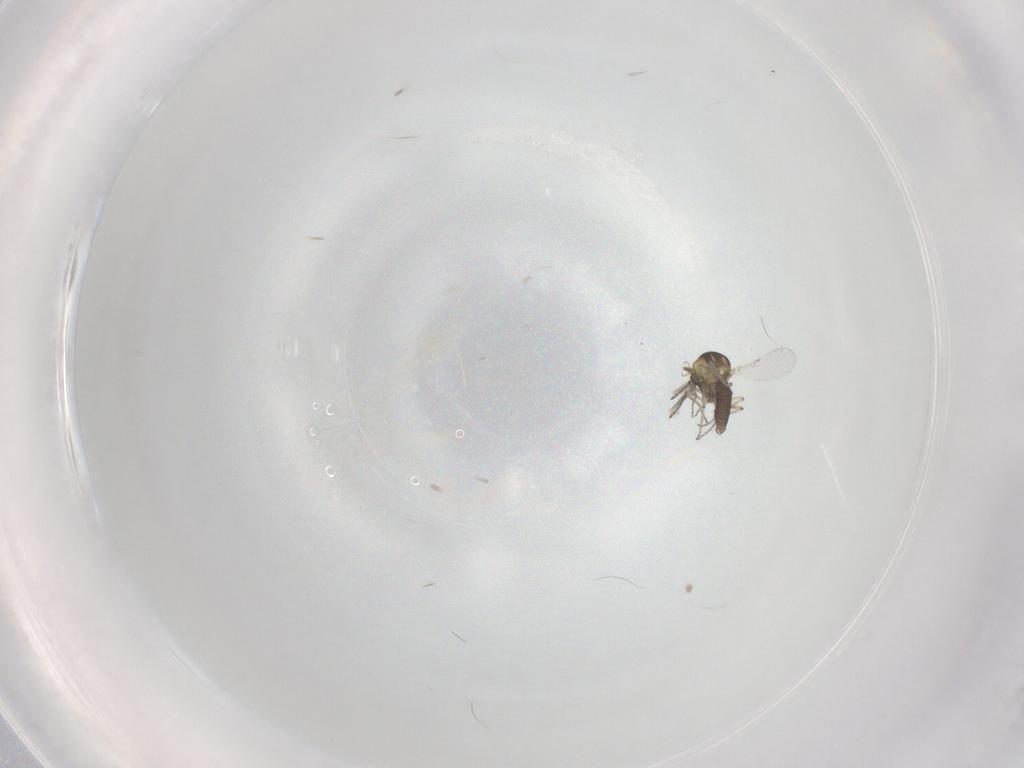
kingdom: Animalia
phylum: Arthropoda
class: Insecta
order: Diptera
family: Ceratopogonidae
